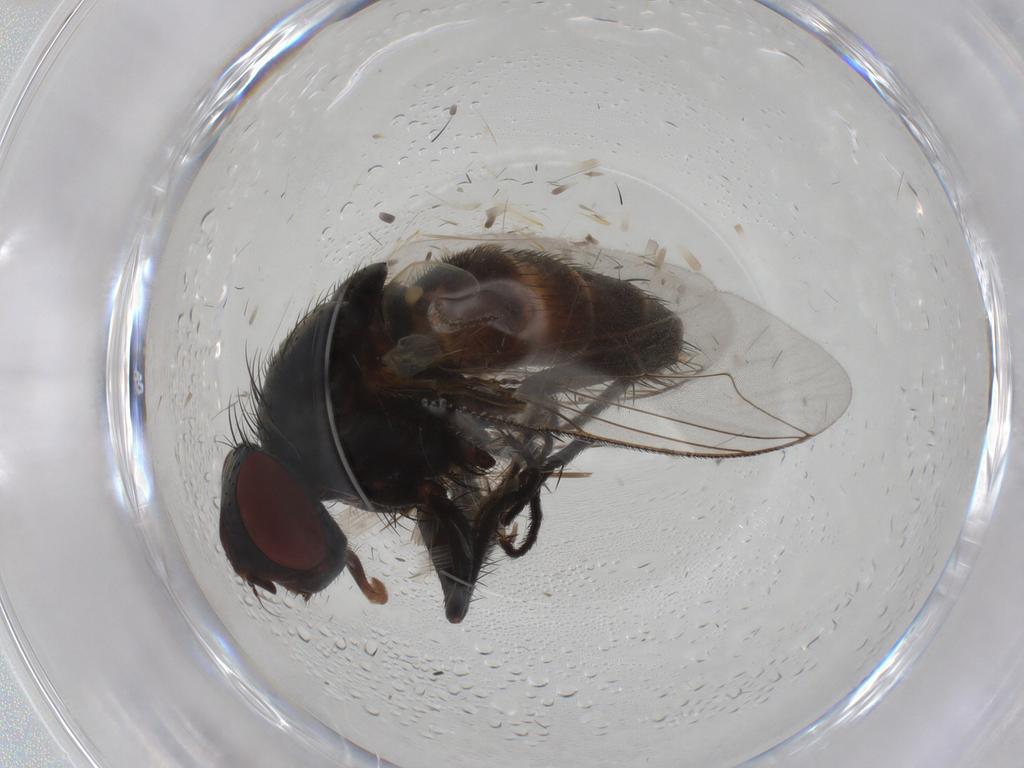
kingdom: Animalia
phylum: Arthropoda
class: Insecta
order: Diptera
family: Sarcophagidae
